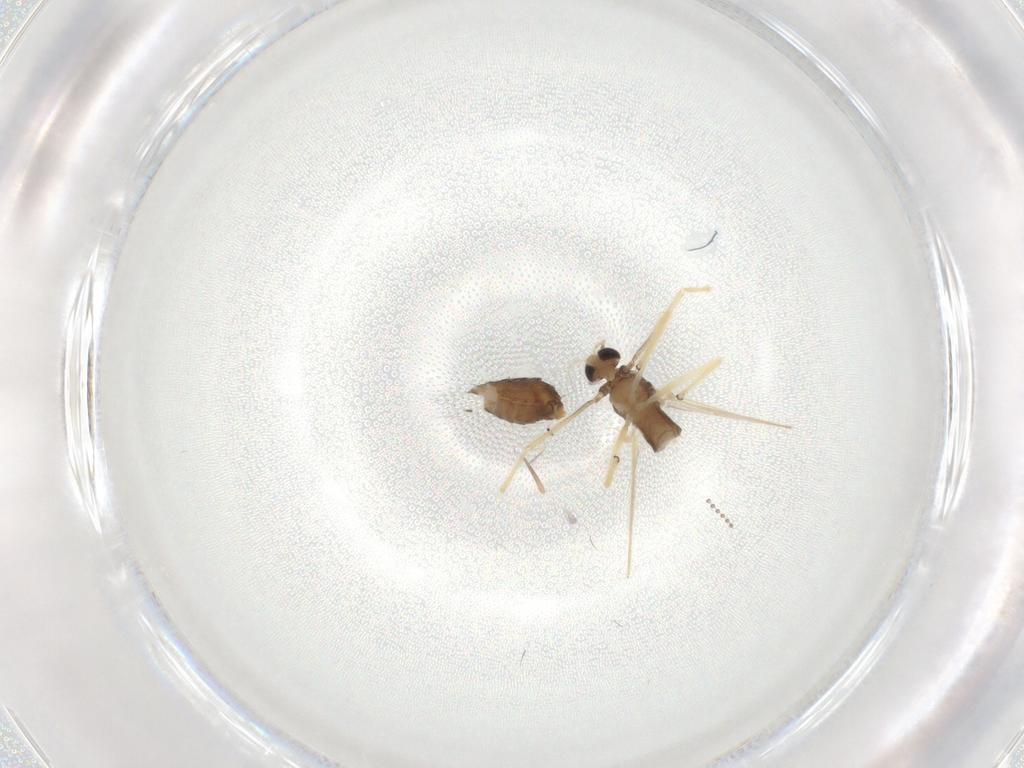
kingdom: Animalia
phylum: Arthropoda
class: Insecta
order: Diptera
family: Chironomidae
